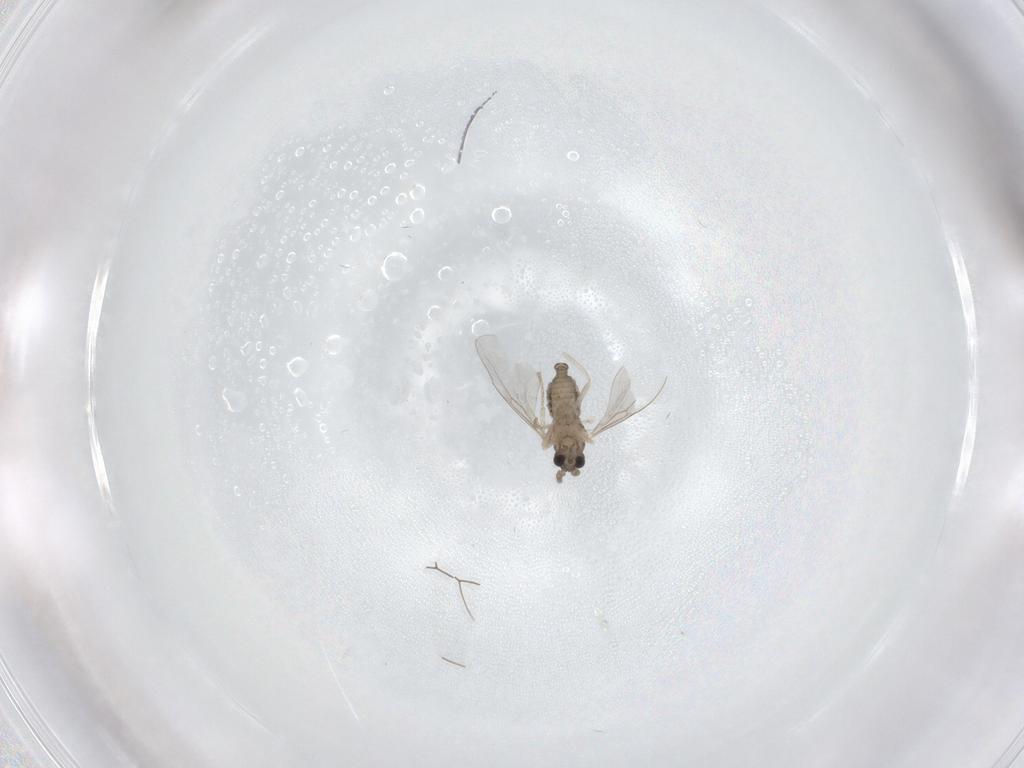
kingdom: Animalia
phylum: Arthropoda
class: Insecta
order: Diptera
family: Cecidomyiidae
